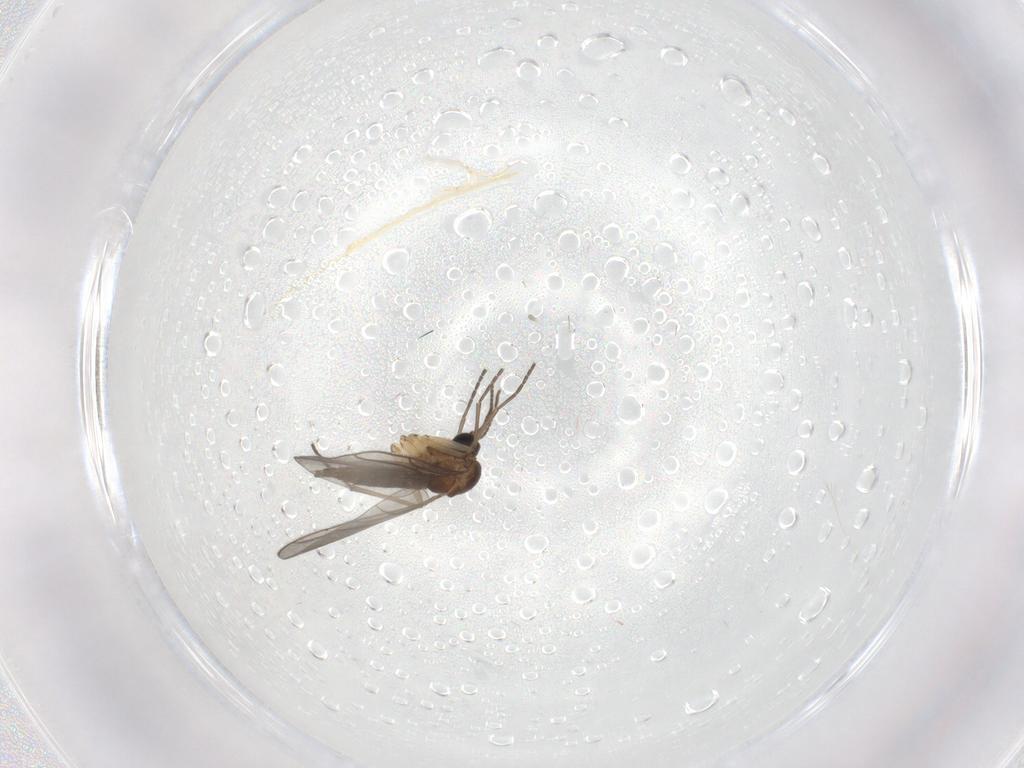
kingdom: Animalia
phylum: Arthropoda
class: Insecta
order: Diptera
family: Sciaridae
